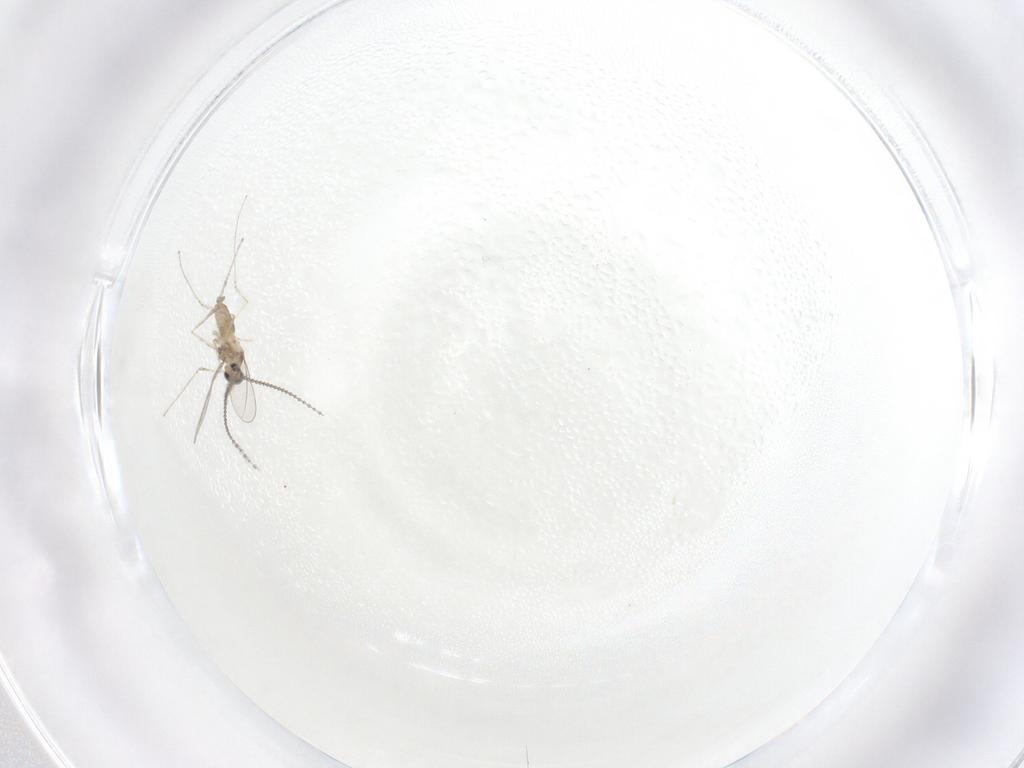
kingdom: Animalia
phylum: Arthropoda
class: Insecta
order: Diptera
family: Cecidomyiidae
